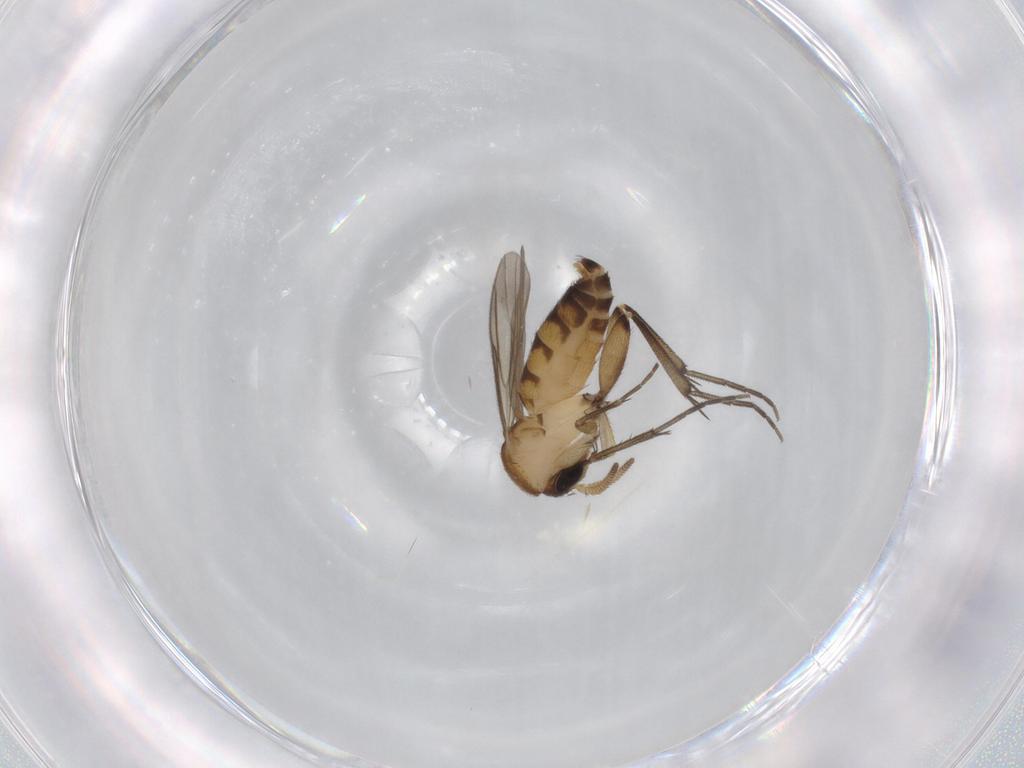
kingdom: Animalia
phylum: Arthropoda
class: Insecta
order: Diptera
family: Mycetophilidae
